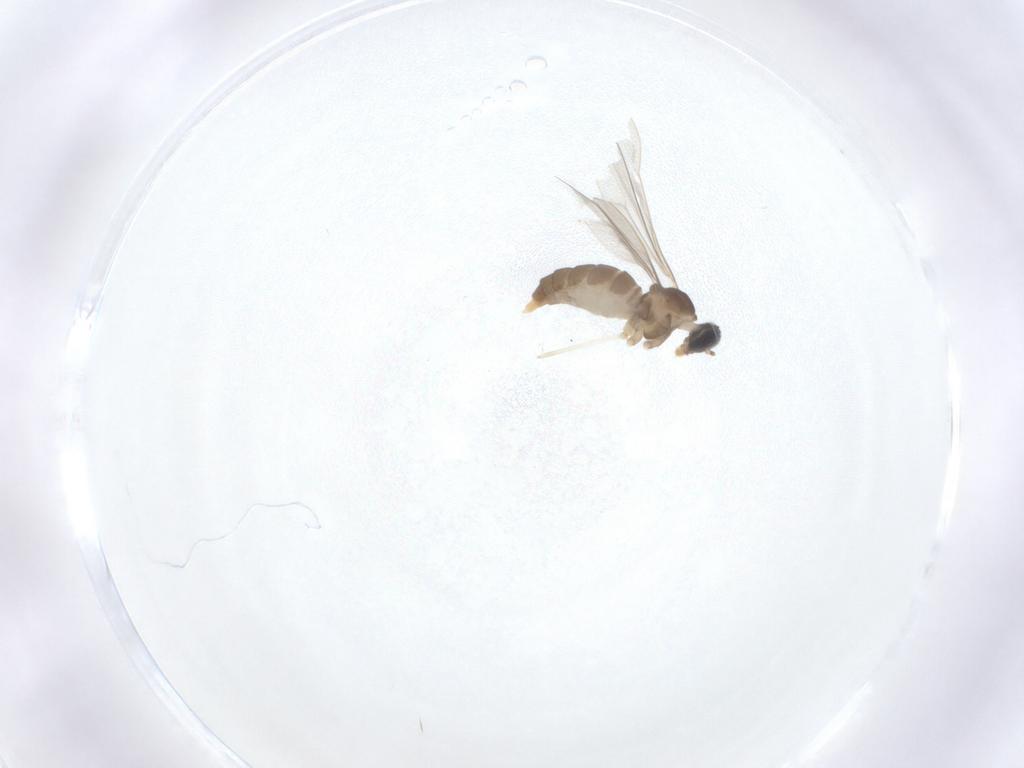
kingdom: Animalia
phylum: Arthropoda
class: Insecta
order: Diptera
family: Cecidomyiidae
